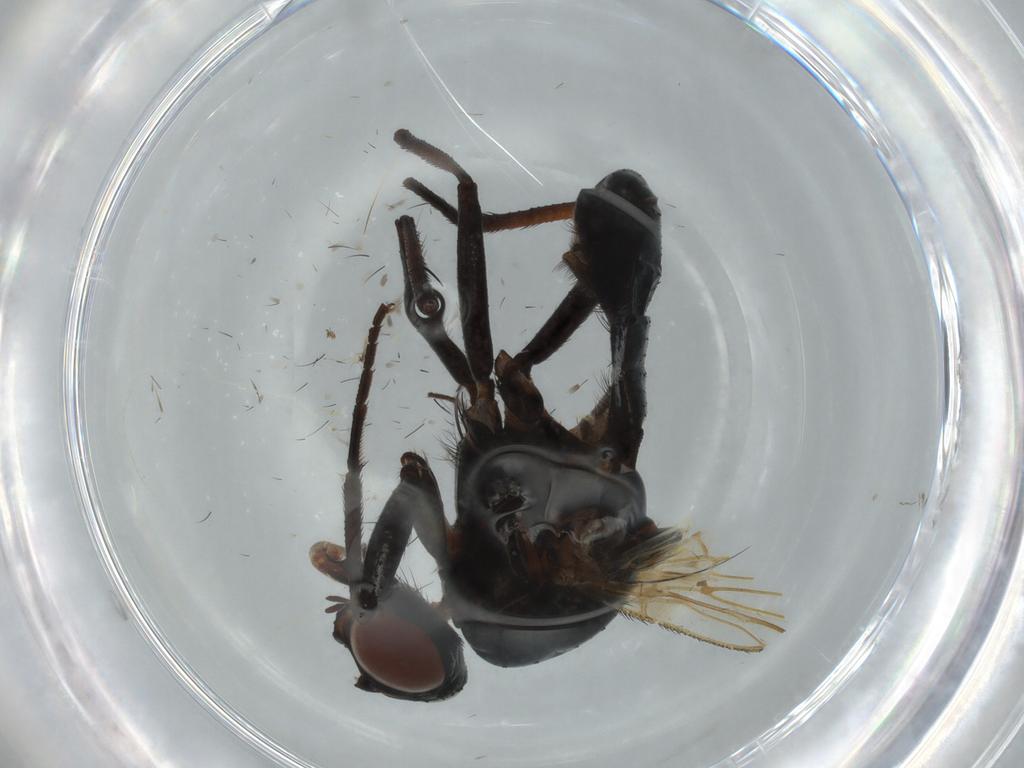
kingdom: Animalia
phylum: Arthropoda
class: Insecta
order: Diptera
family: Anthomyiidae
